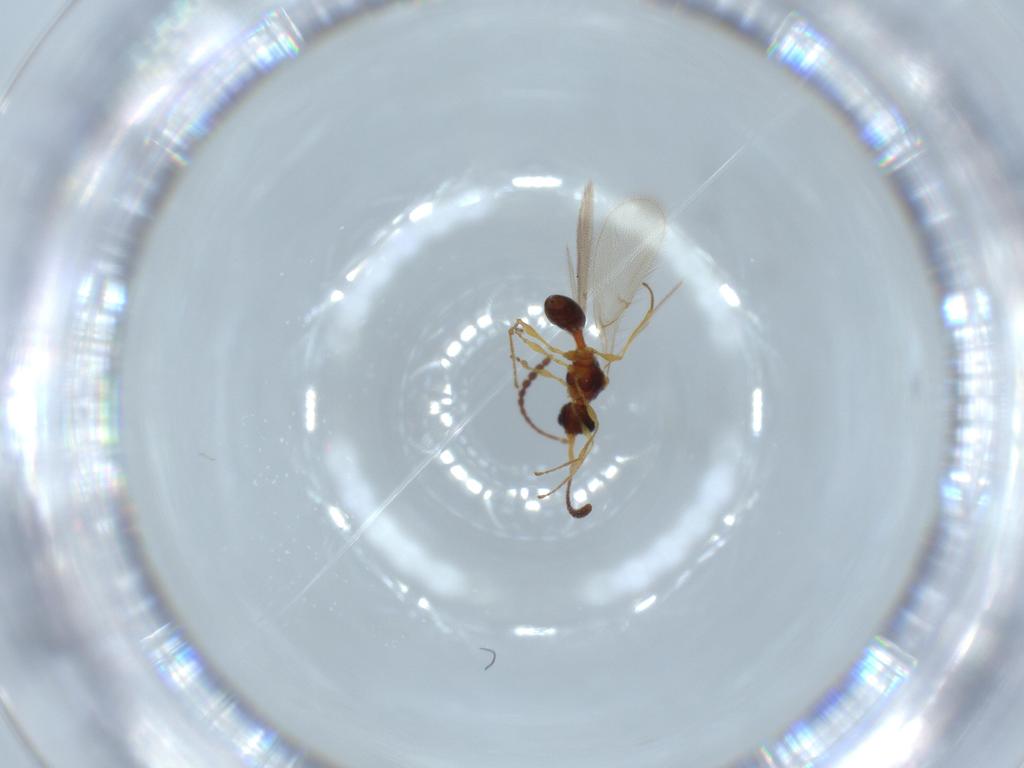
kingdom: Animalia
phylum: Arthropoda
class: Insecta
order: Hymenoptera
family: Diapriidae
